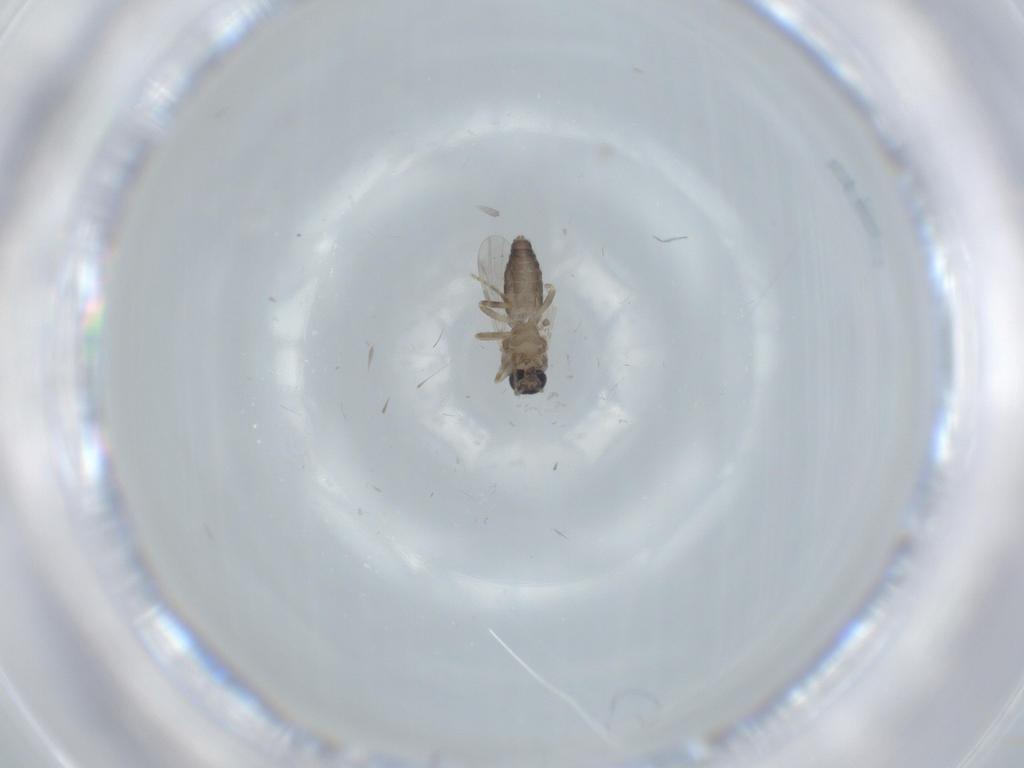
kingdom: Animalia
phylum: Arthropoda
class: Insecta
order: Diptera
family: Ceratopogonidae
